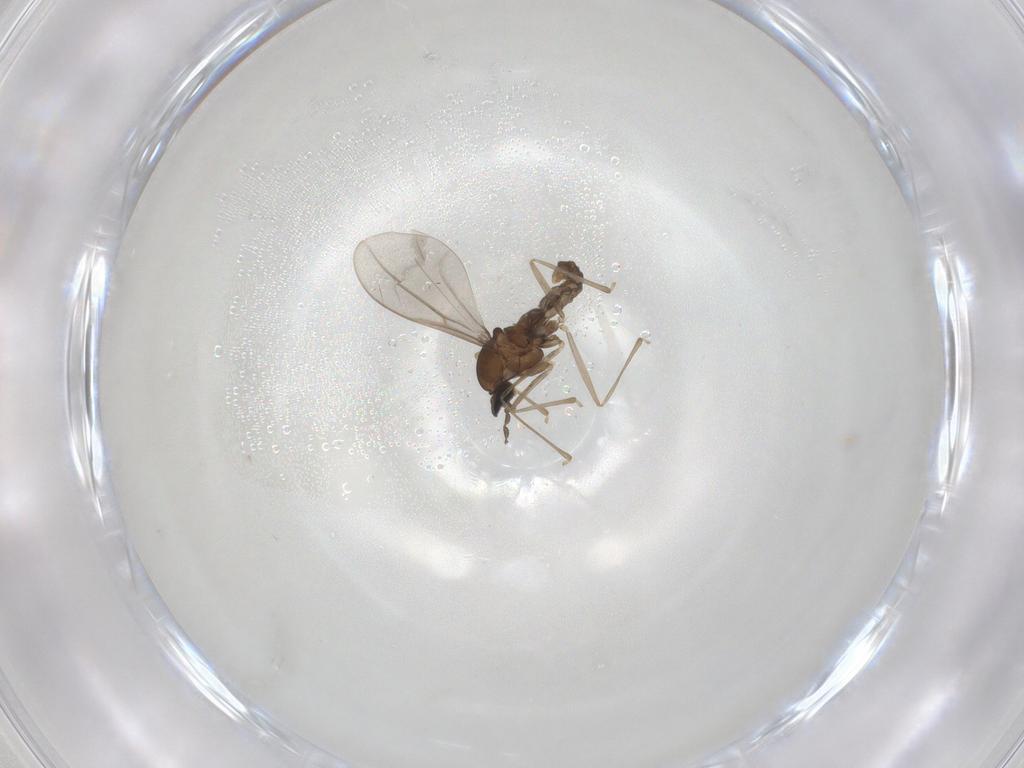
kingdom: Animalia
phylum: Arthropoda
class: Insecta
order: Diptera
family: Cecidomyiidae
